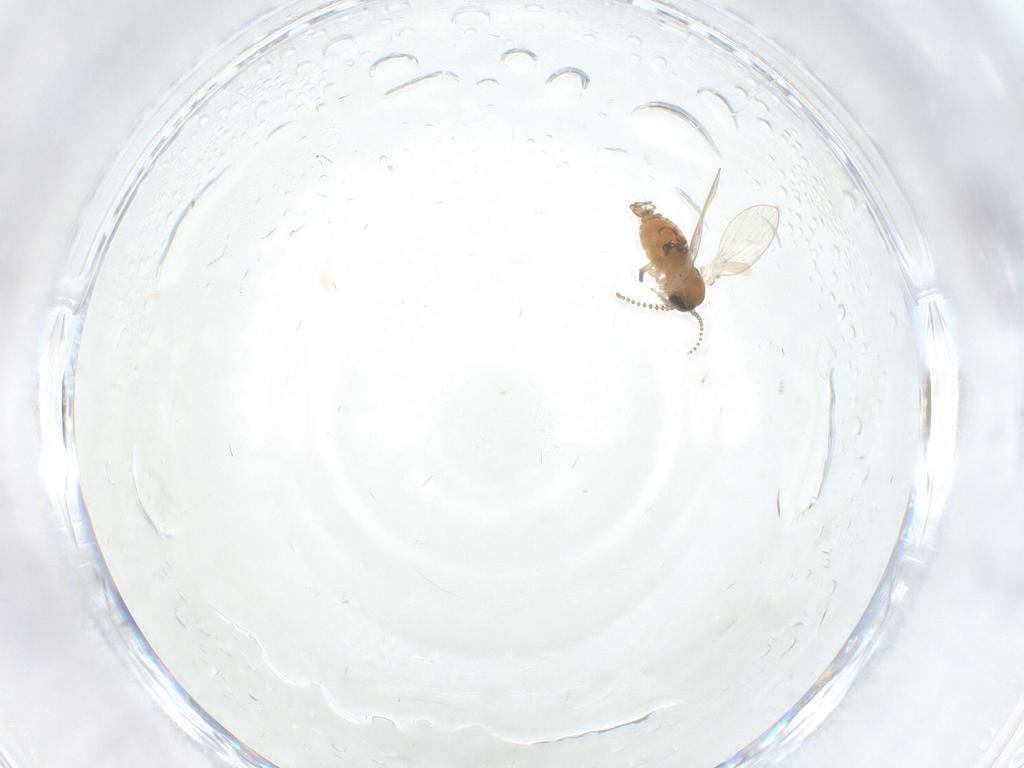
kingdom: Animalia
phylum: Arthropoda
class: Insecta
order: Diptera
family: Psychodidae
